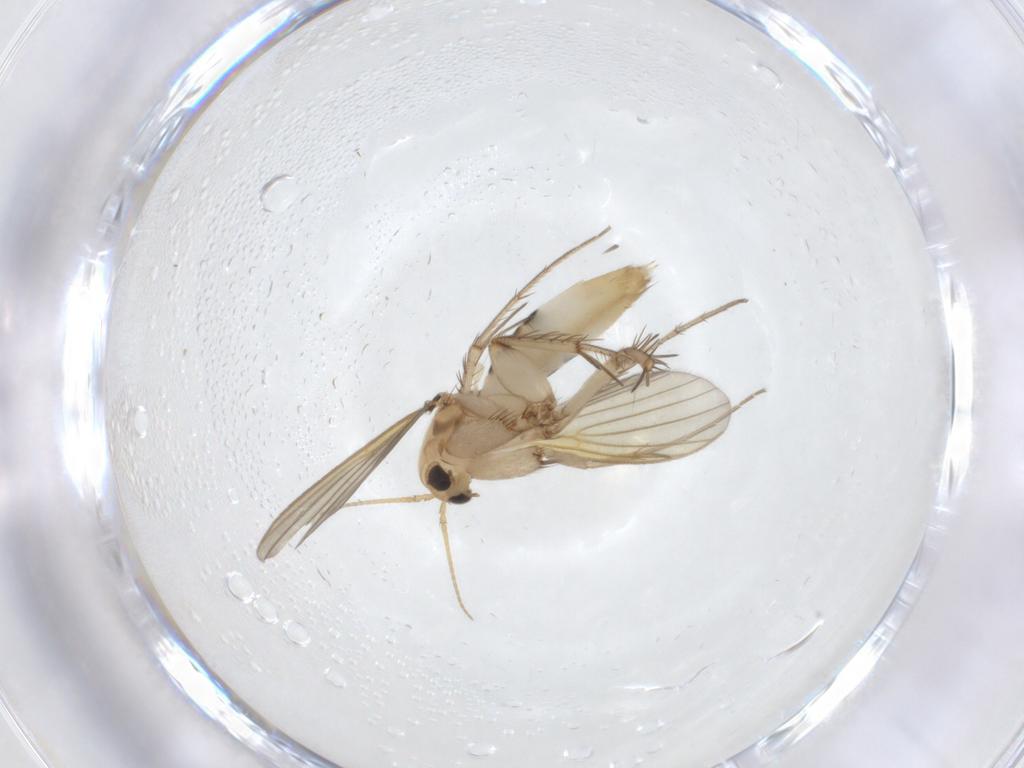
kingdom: Animalia
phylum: Arthropoda
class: Insecta
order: Diptera
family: Mycetophilidae
